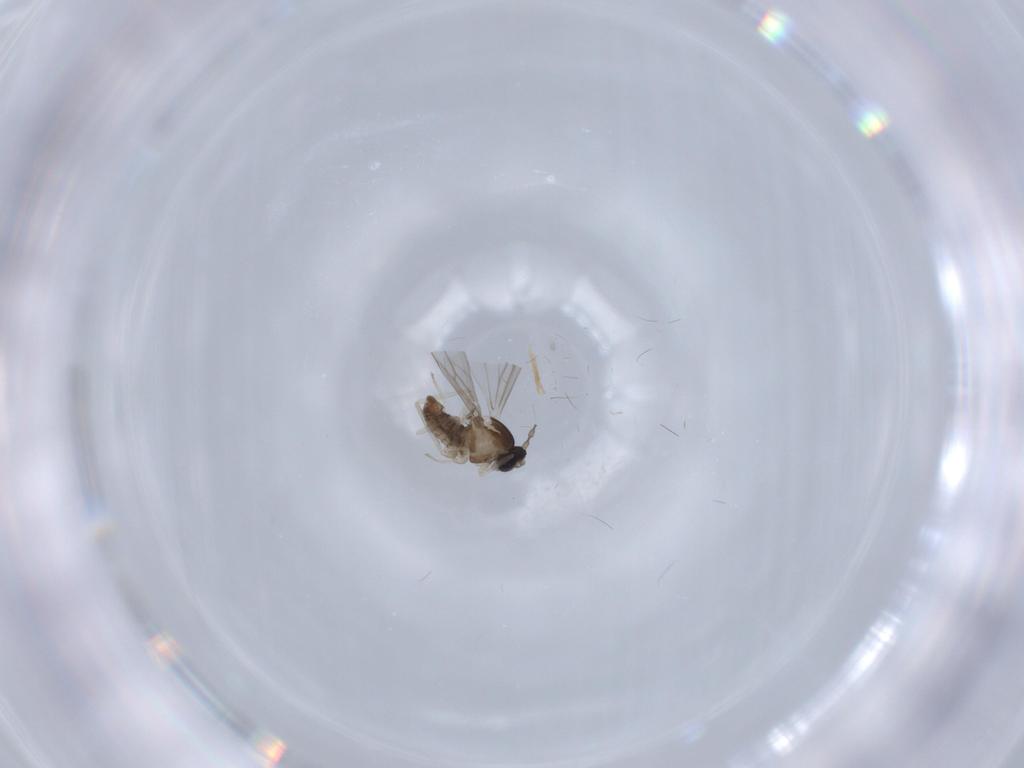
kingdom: Animalia
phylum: Arthropoda
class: Insecta
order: Diptera
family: Cecidomyiidae
